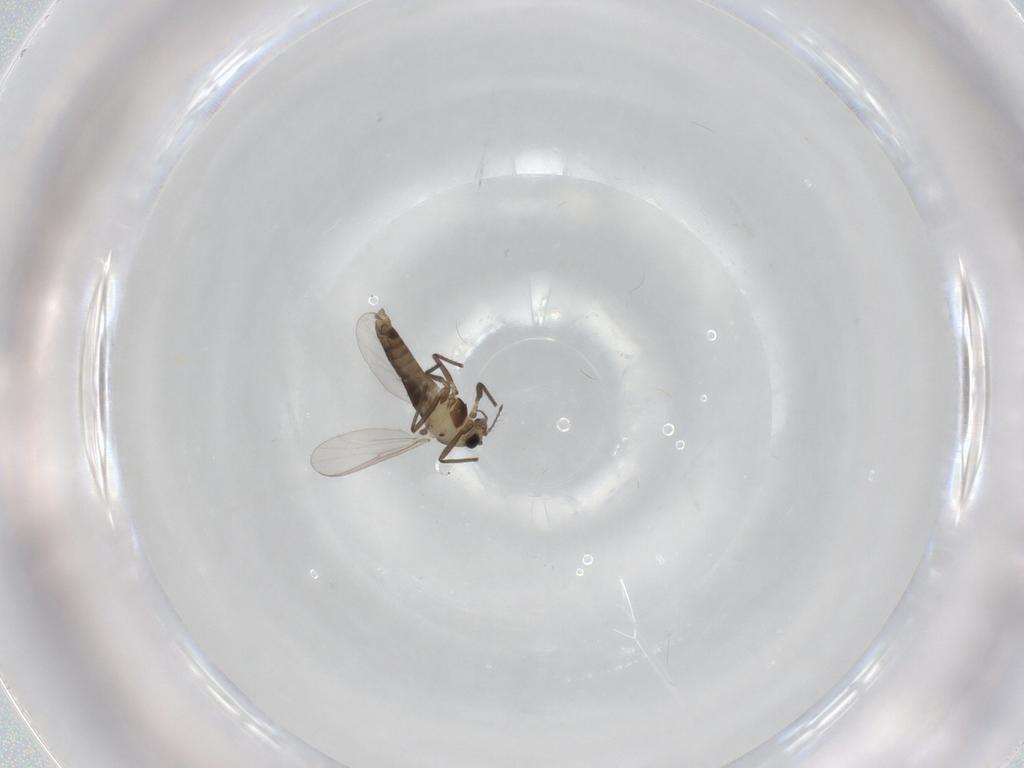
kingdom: Animalia
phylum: Arthropoda
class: Insecta
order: Diptera
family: Chironomidae
